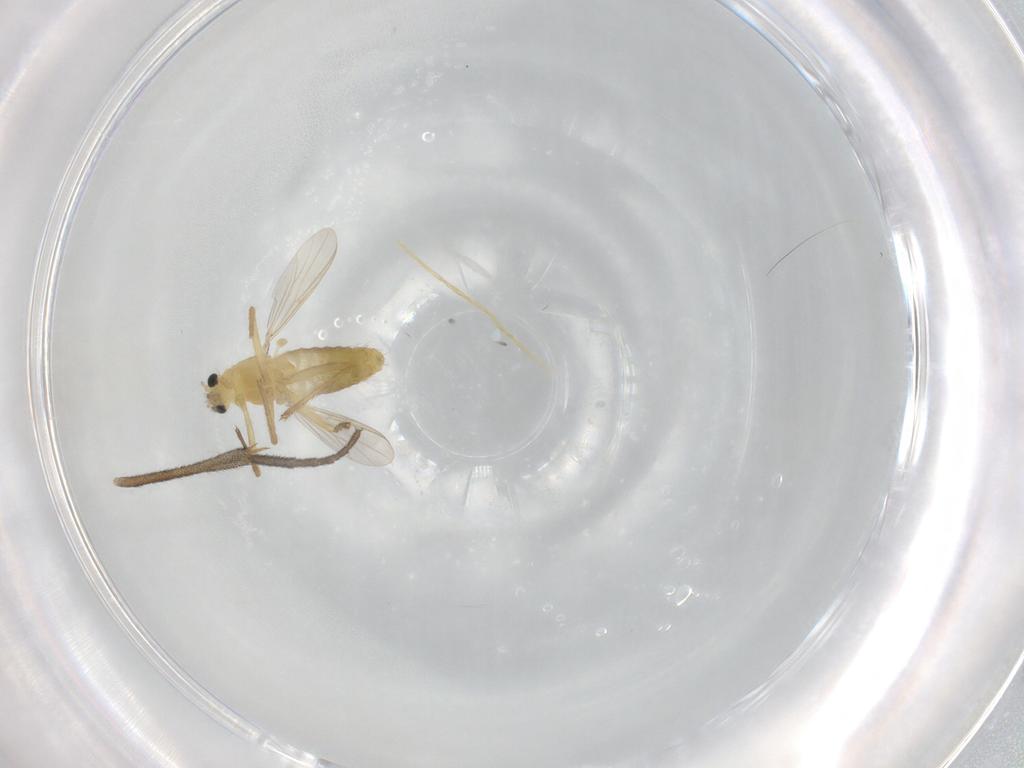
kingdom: Animalia
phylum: Arthropoda
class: Insecta
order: Diptera
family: Chironomidae
